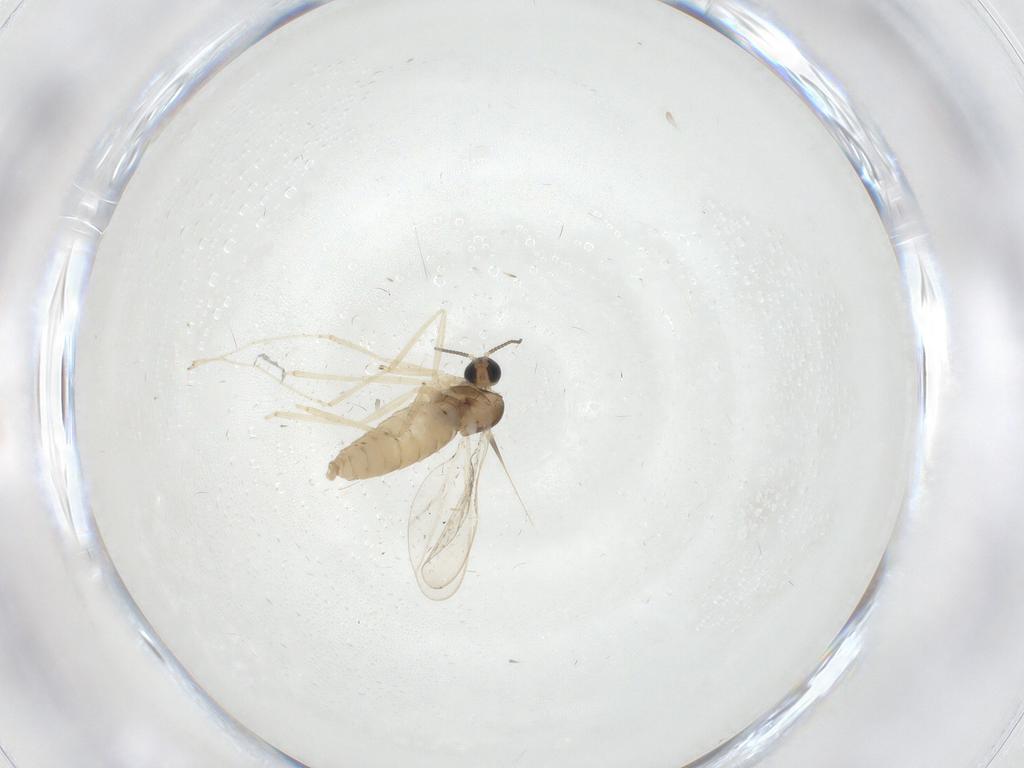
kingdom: Animalia
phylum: Arthropoda
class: Insecta
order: Diptera
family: Cecidomyiidae
